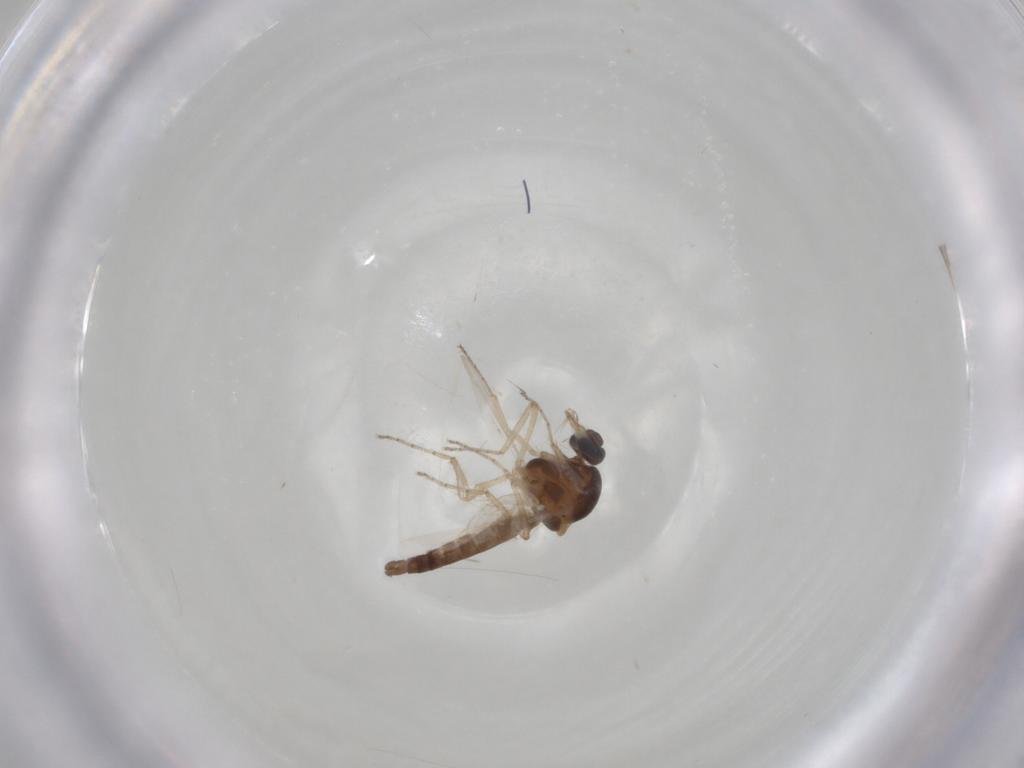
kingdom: Animalia
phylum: Arthropoda
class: Insecta
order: Diptera
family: Ceratopogonidae
